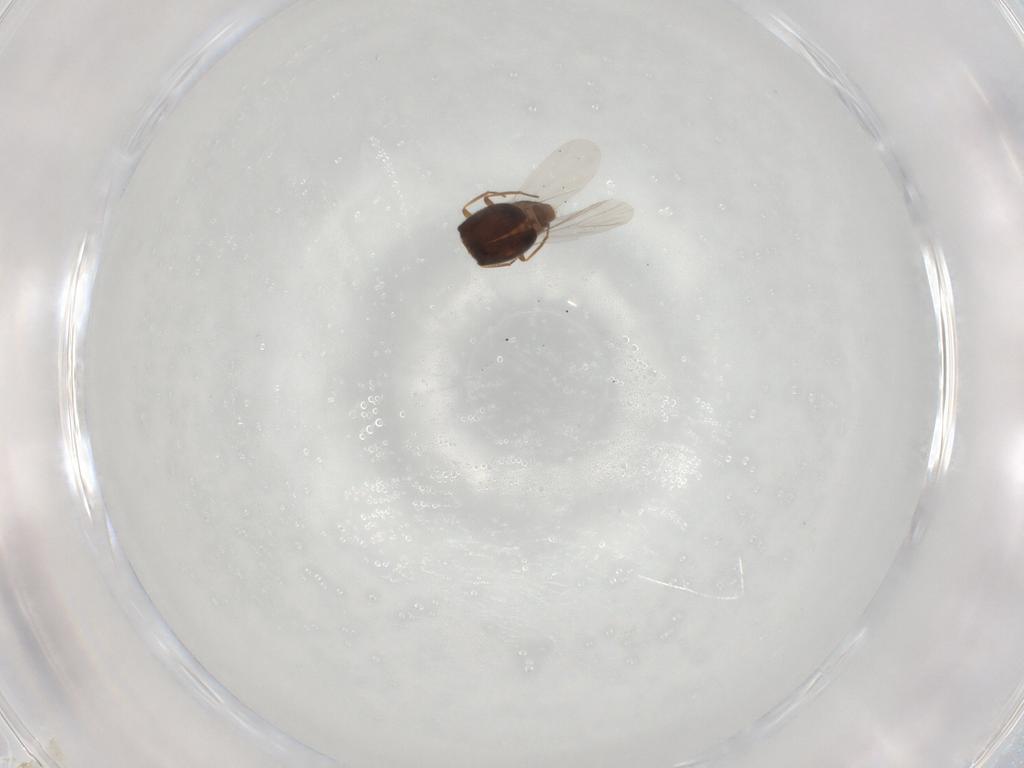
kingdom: Animalia
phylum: Arthropoda
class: Insecta
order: Coleoptera
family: Cryptophagidae
